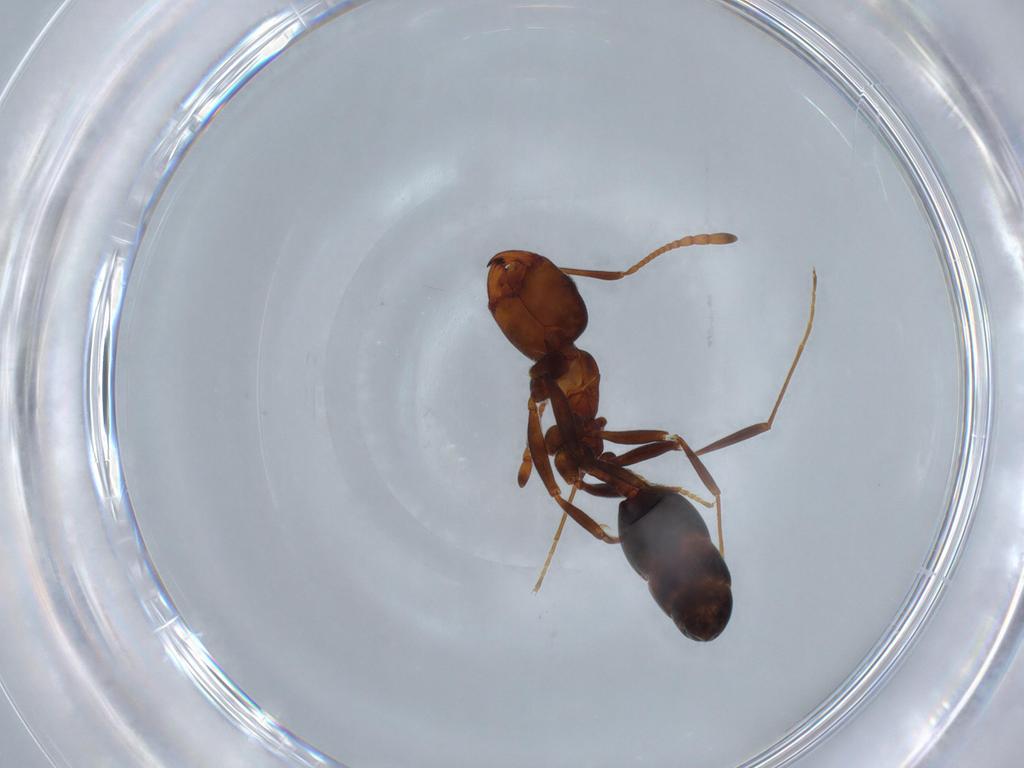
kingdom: Animalia
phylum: Arthropoda
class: Insecta
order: Hymenoptera
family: Formicidae
